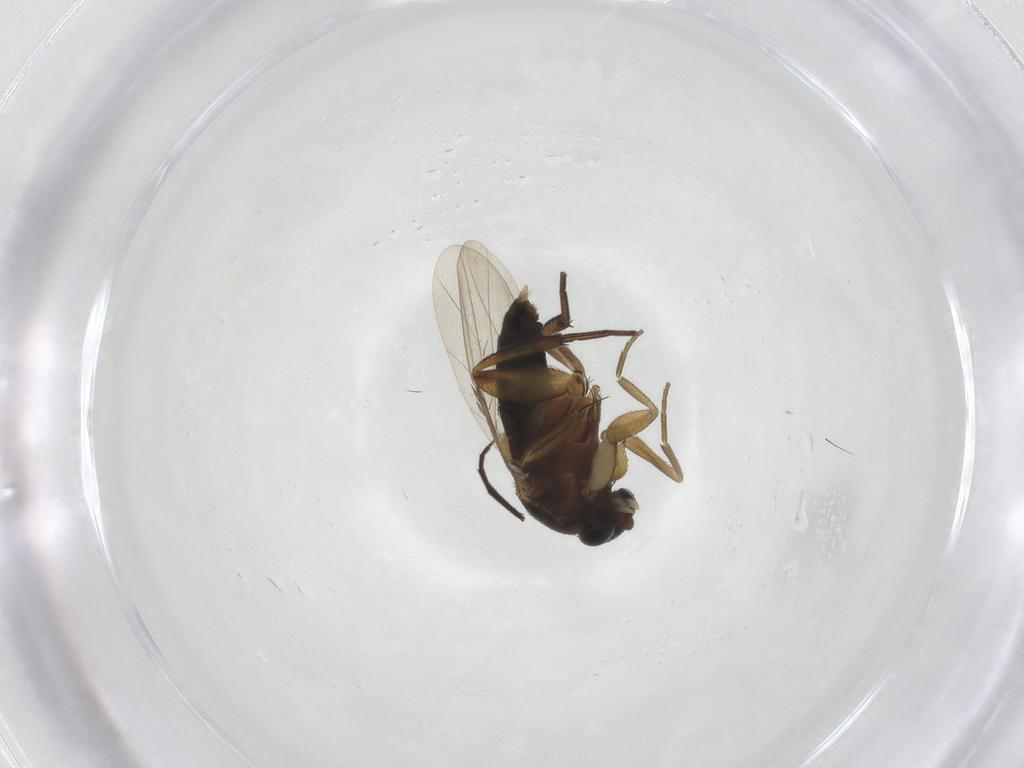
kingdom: Animalia
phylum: Arthropoda
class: Insecta
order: Diptera
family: Phoridae
